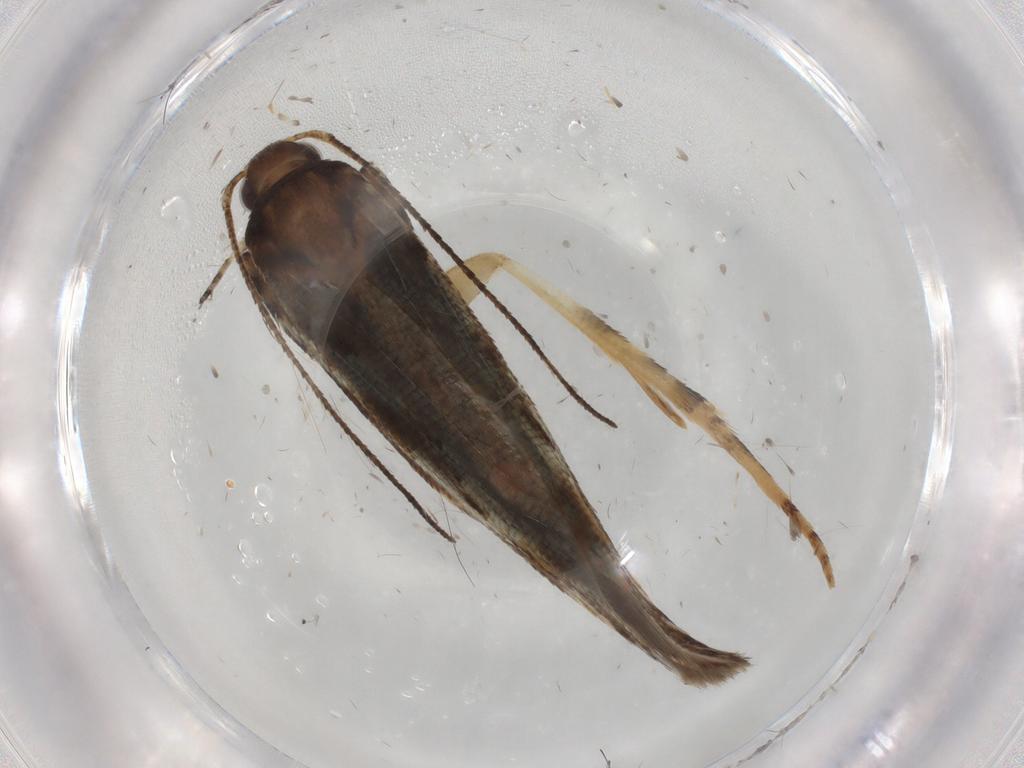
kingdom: Animalia
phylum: Arthropoda
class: Insecta
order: Lepidoptera
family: Gelechiidae
